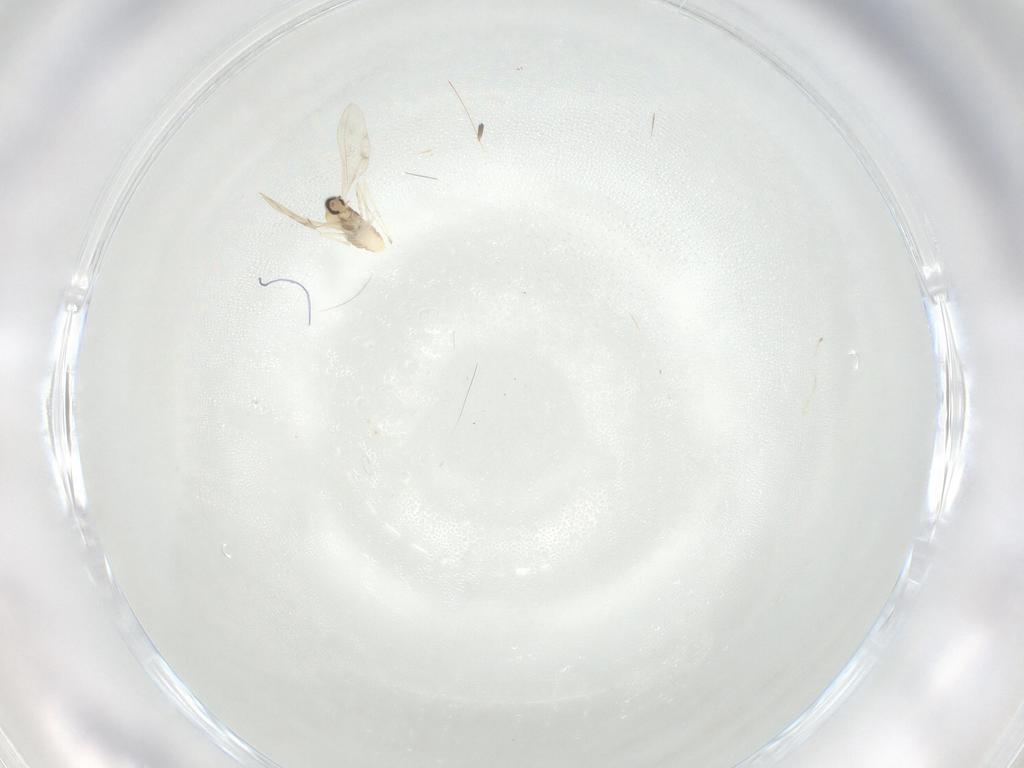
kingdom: Animalia
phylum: Arthropoda
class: Insecta
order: Diptera
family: Cecidomyiidae
